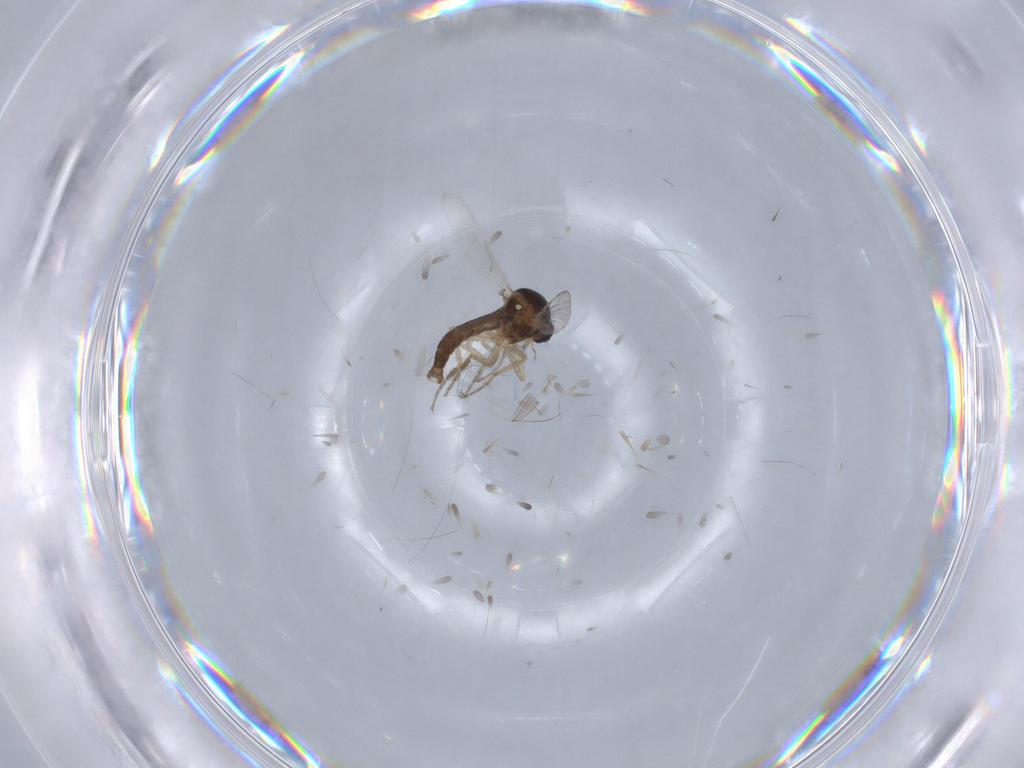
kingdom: Animalia
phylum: Arthropoda
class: Insecta
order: Diptera
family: Ceratopogonidae
